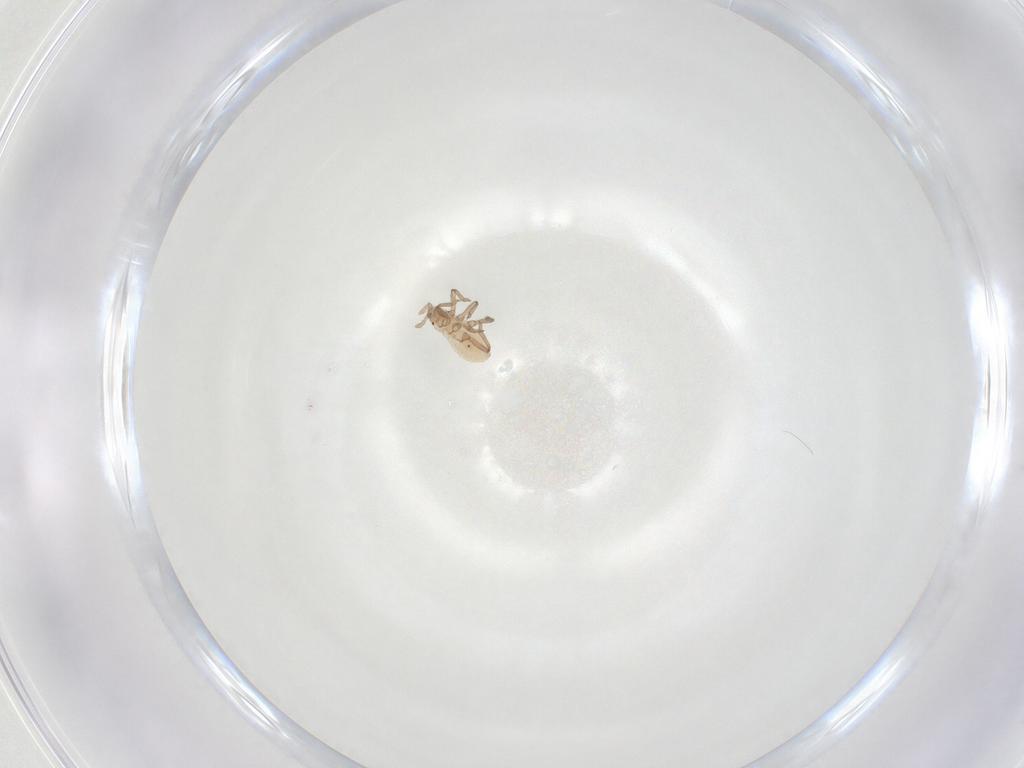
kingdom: Animalia
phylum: Arthropoda
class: Insecta
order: Hemiptera
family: Aphididae
